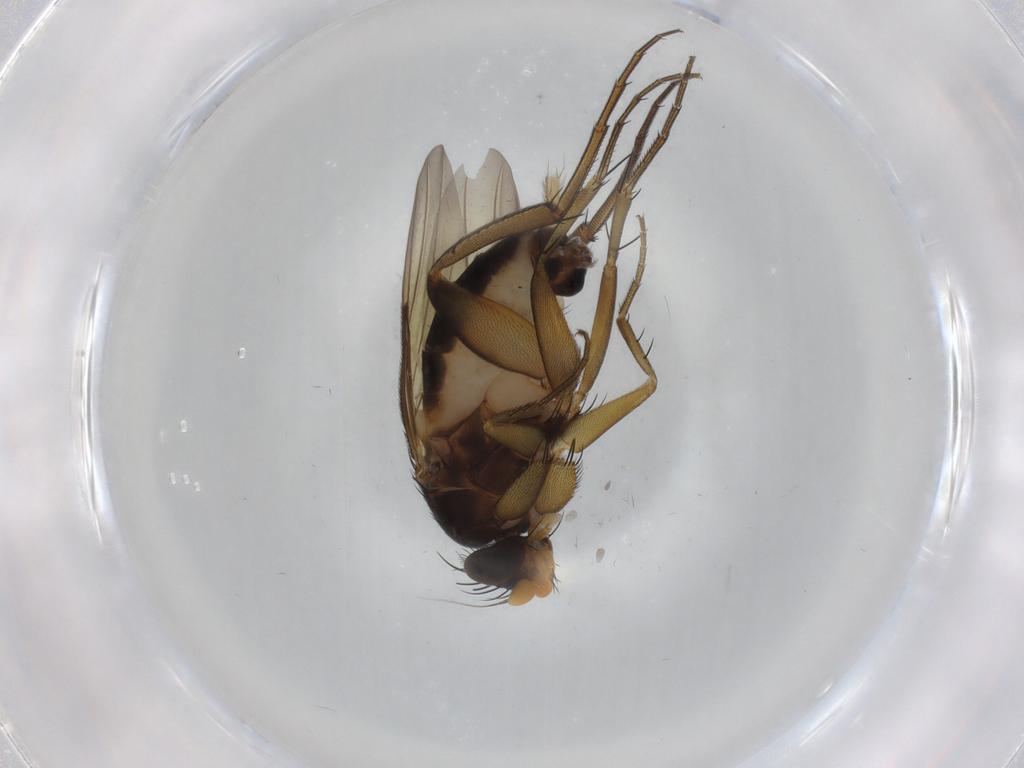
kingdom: Animalia
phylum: Arthropoda
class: Insecta
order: Diptera
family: Phoridae
